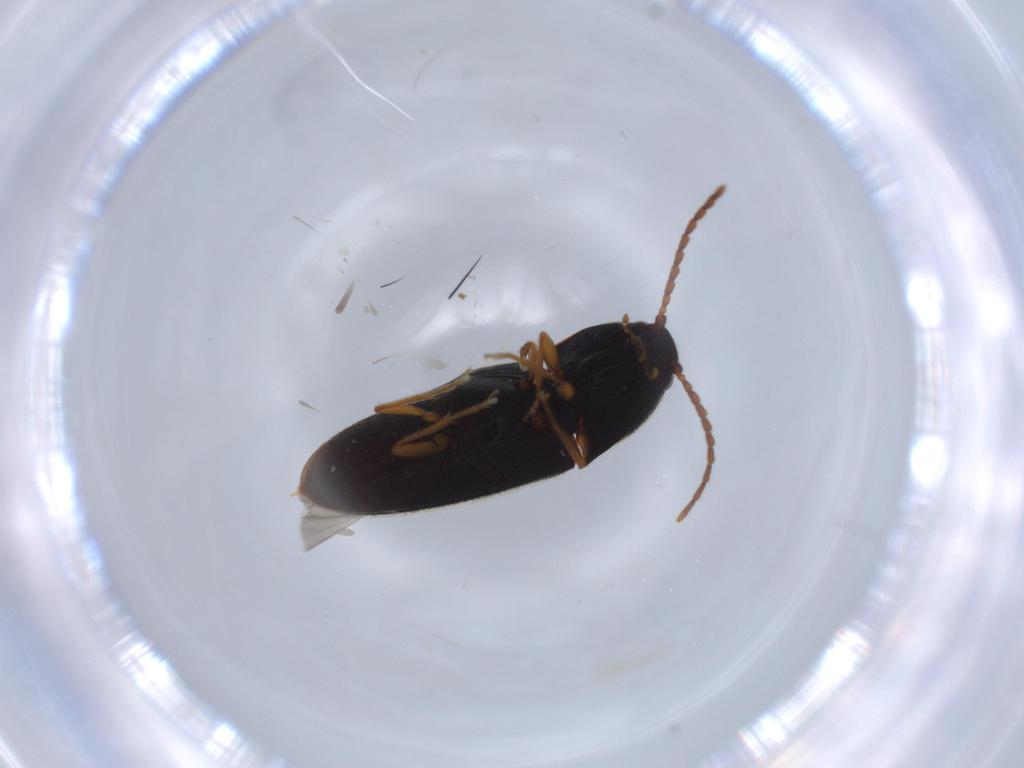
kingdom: Animalia
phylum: Arthropoda
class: Insecta
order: Coleoptera
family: Elateridae
